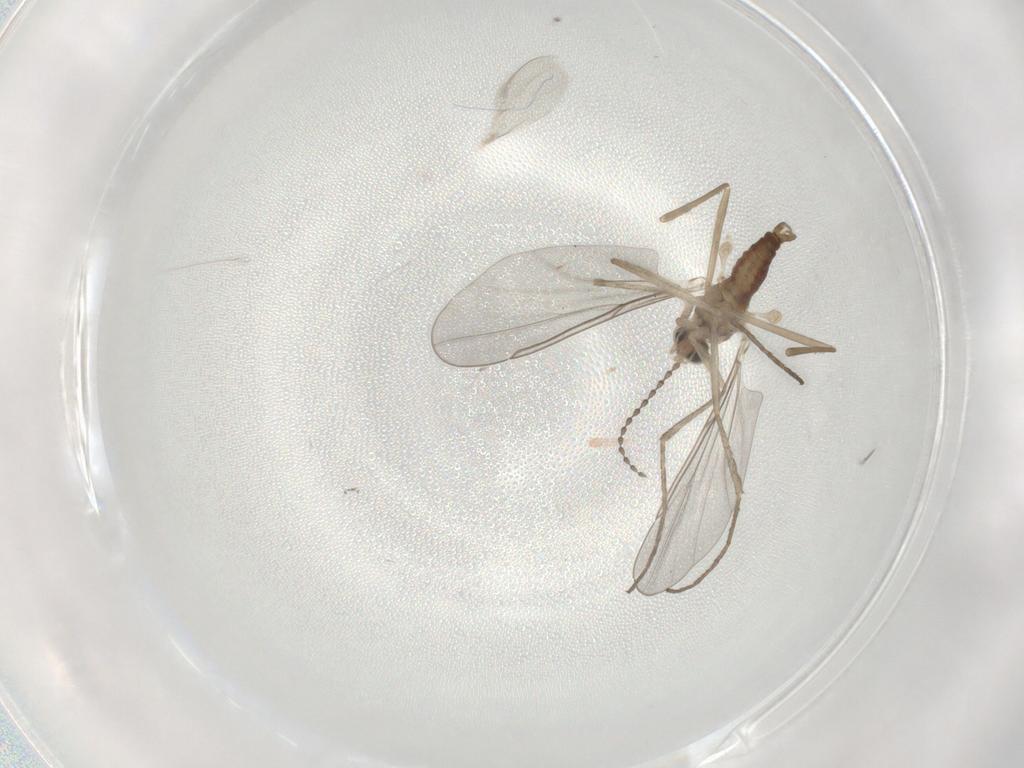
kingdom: Animalia
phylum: Arthropoda
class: Insecta
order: Diptera
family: Cecidomyiidae
